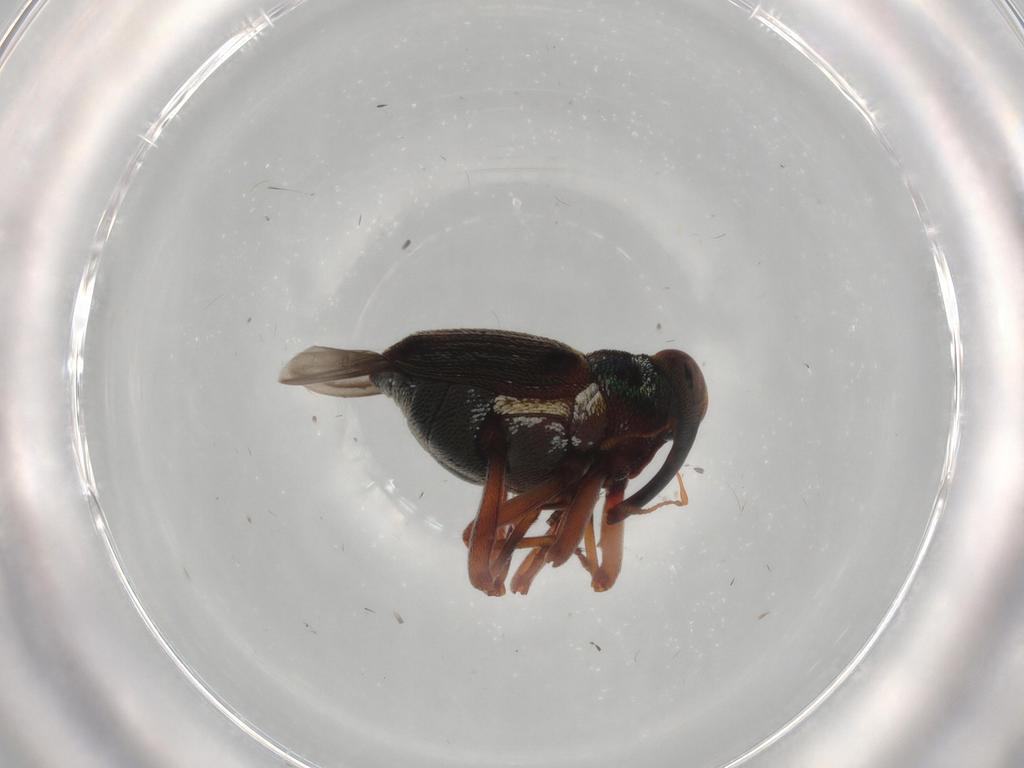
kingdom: Animalia
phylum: Arthropoda
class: Insecta
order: Coleoptera
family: Curculionidae
